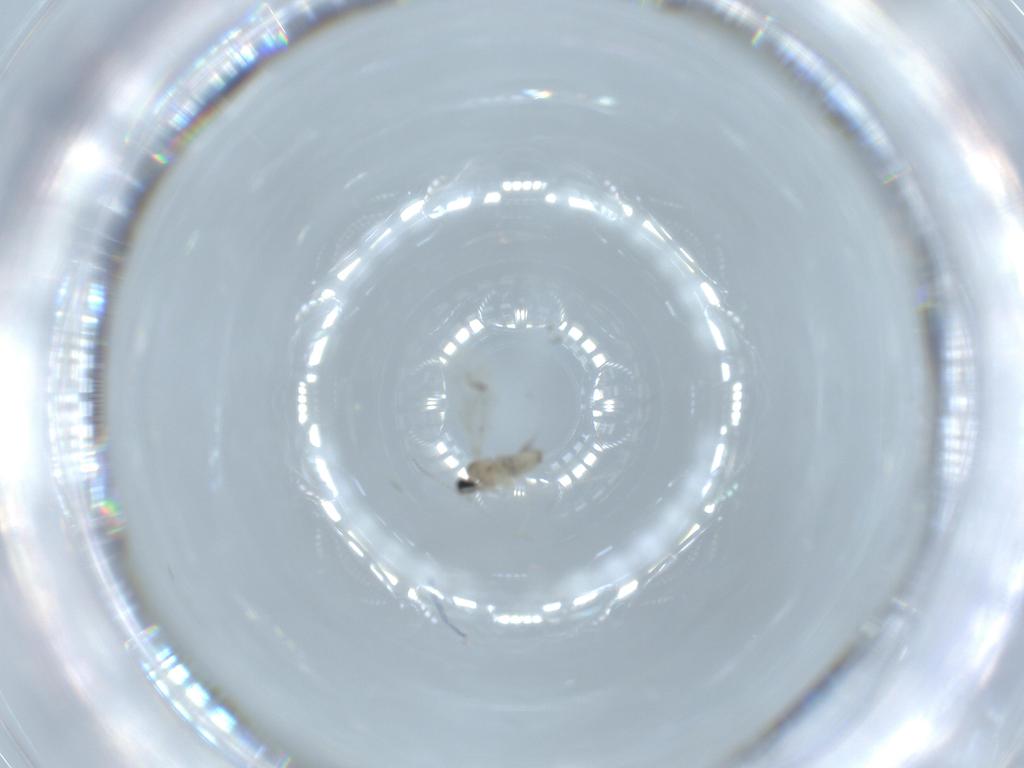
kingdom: Animalia
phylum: Arthropoda
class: Insecta
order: Diptera
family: Cecidomyiidae
